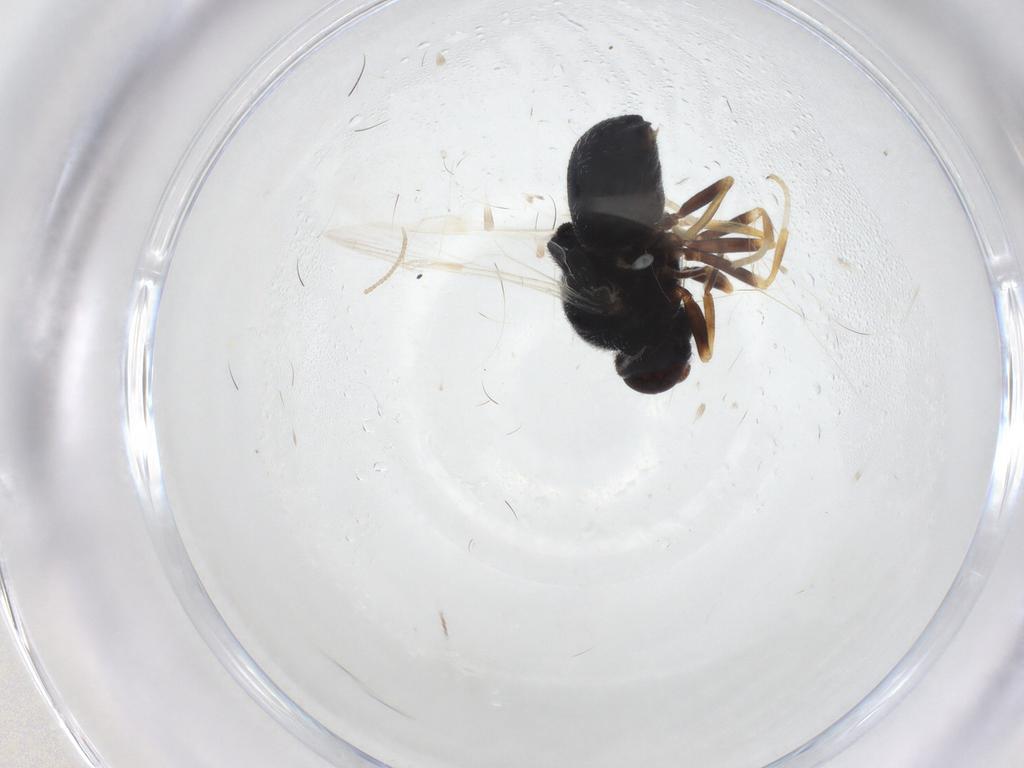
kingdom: Animalia
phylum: Arthropoda
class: Insecta
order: Diptera
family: Stratiomyidae
